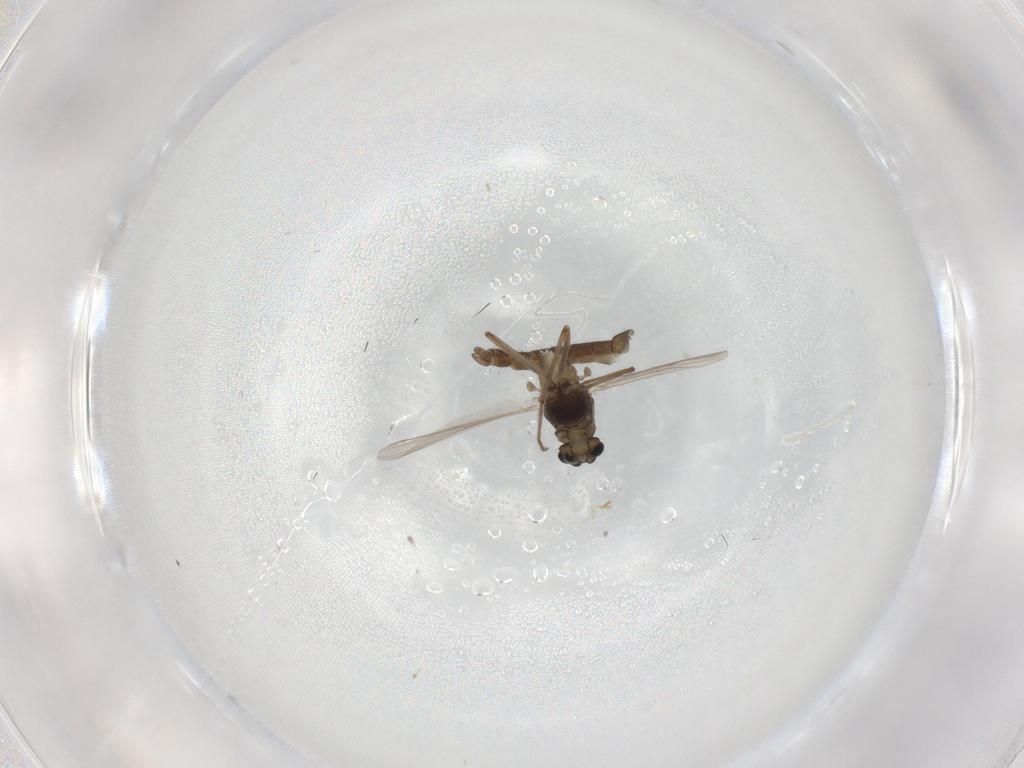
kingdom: Animalia
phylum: Arthropoda
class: Insecta
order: Diptera
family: Chironomidae
